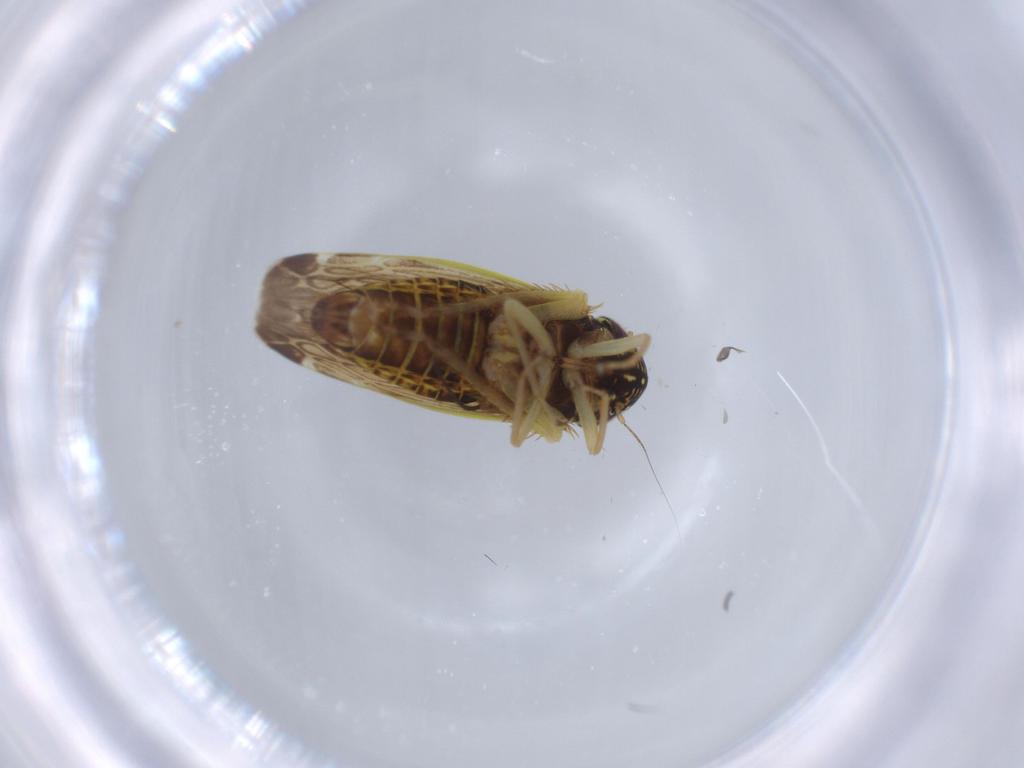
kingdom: Animalia
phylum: Arthropoda
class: Insecta
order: Hemiptera
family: Cicadellidae
